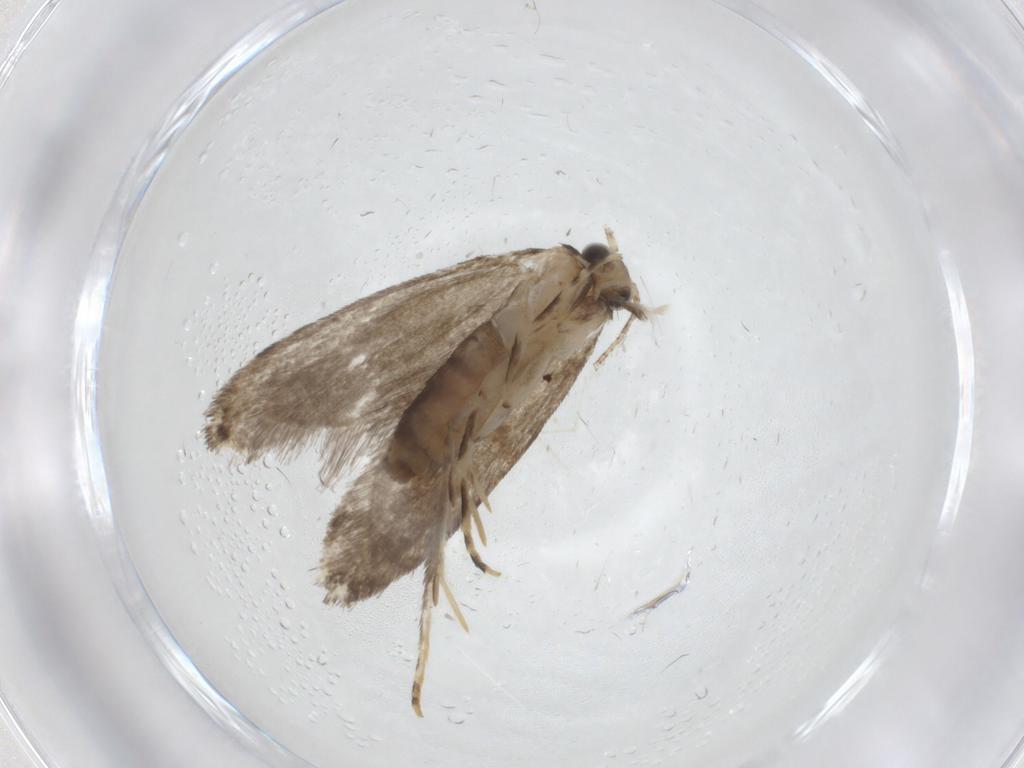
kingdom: Animalia
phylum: Arthropoda
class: Insecta
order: Lepidoptera
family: Tineidae
